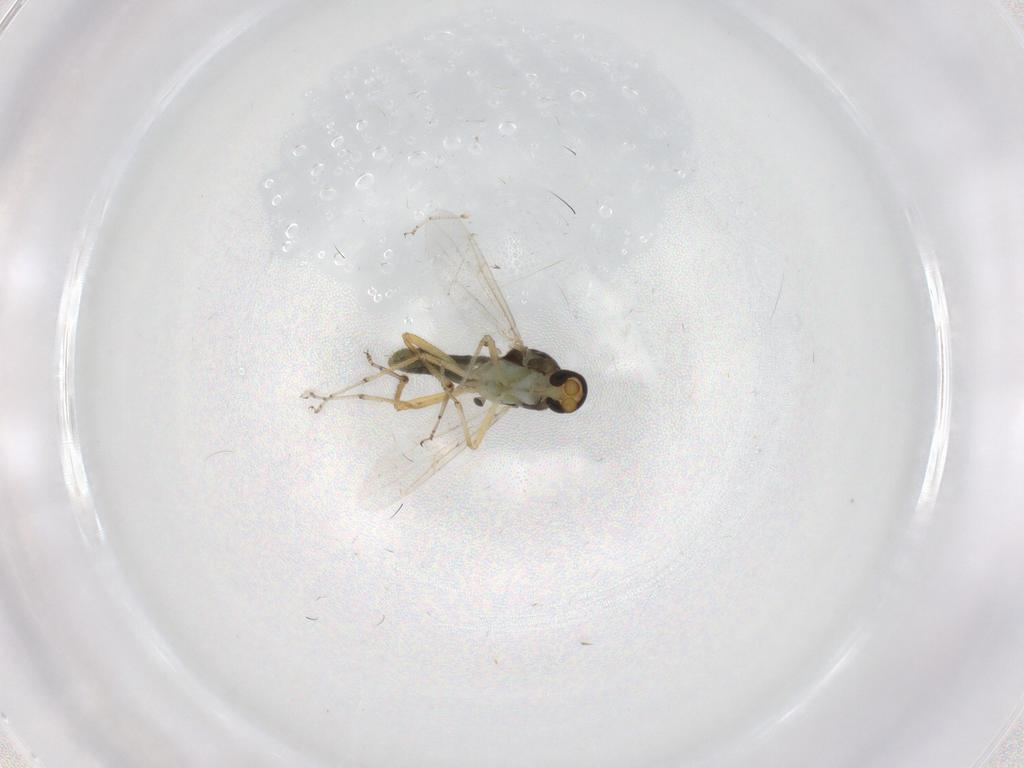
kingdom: Animalia
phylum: Arthropoda
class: Insecta
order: Diptera
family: Ceratopogonidae
